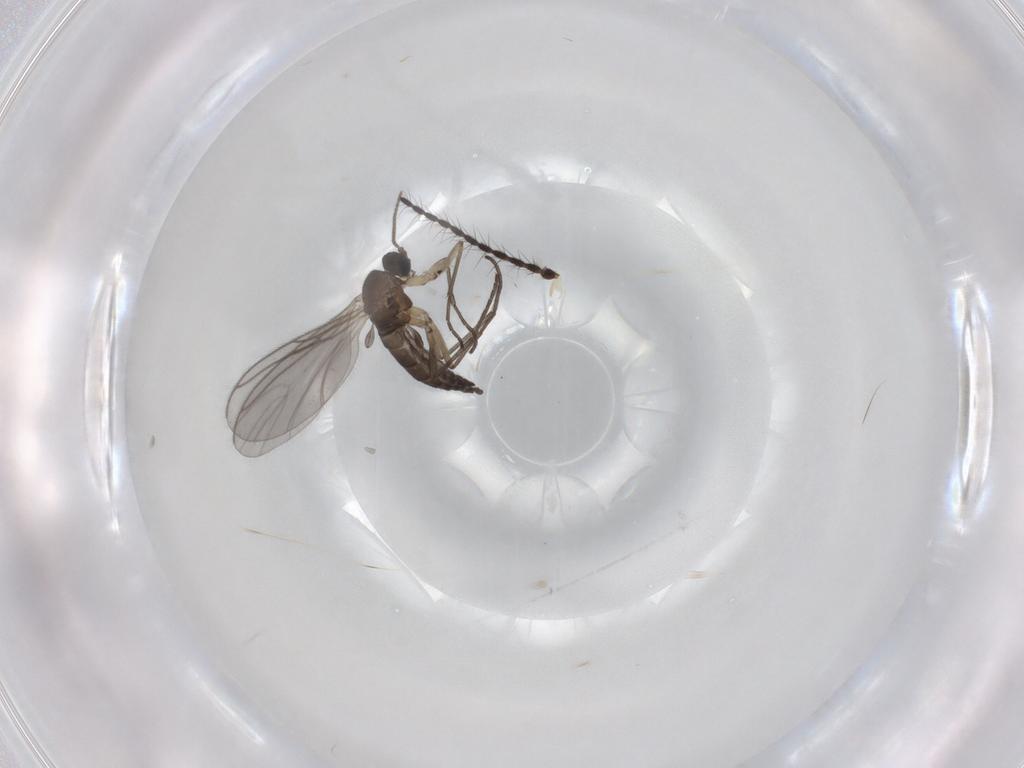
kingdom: Animalia
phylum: Arthropoda
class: Insecta
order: Diptera
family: Sciaridae
